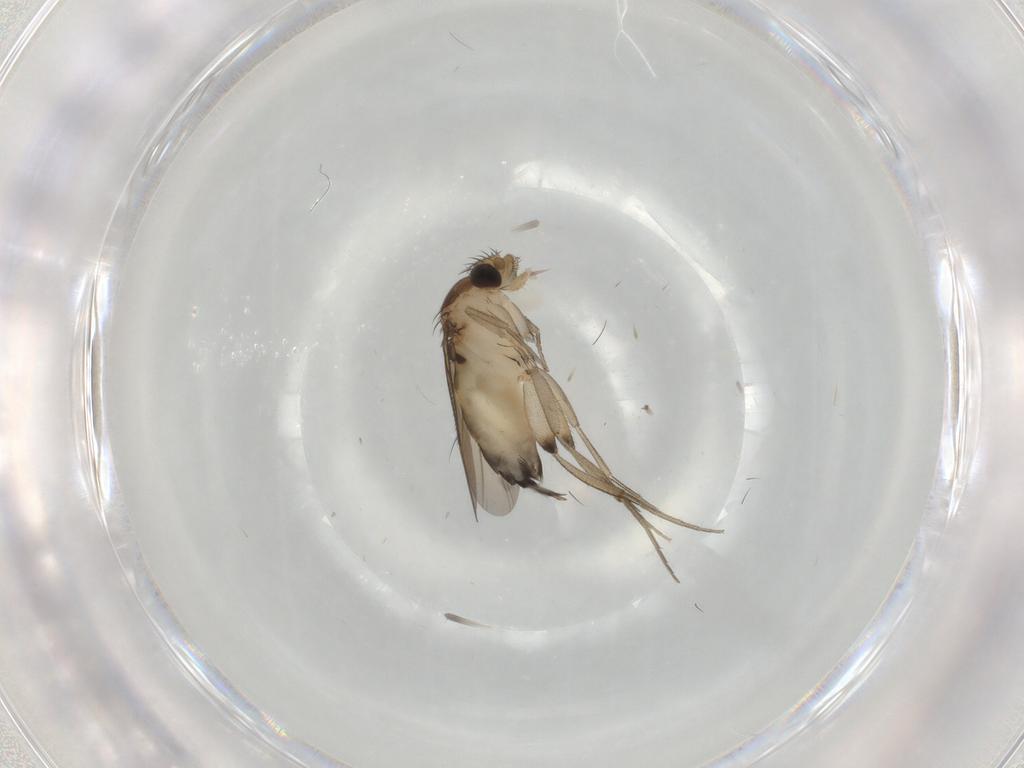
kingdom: Animalia
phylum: Arthropoda
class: Insecta
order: Diptera
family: Phoridae
